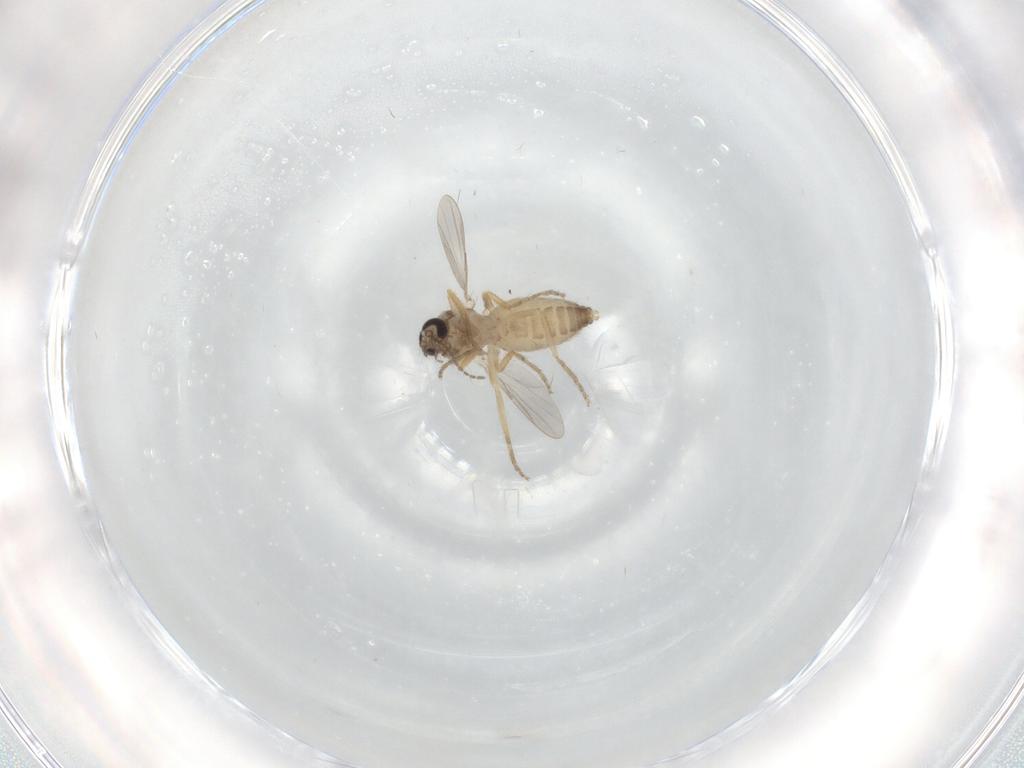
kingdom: Animalia
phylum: Arthropoda
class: Insecta
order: Diptera
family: Ceratopogonidae
